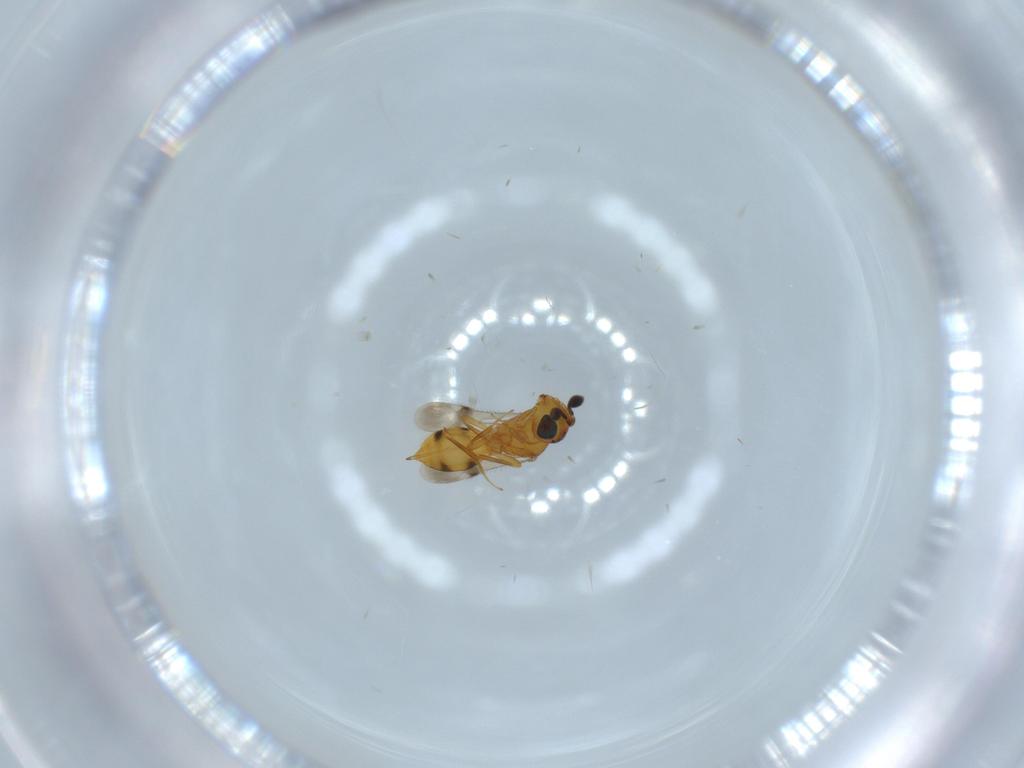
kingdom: Animalia
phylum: Arthropoda
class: Insecta
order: Hymenoptera
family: Scelionidae
